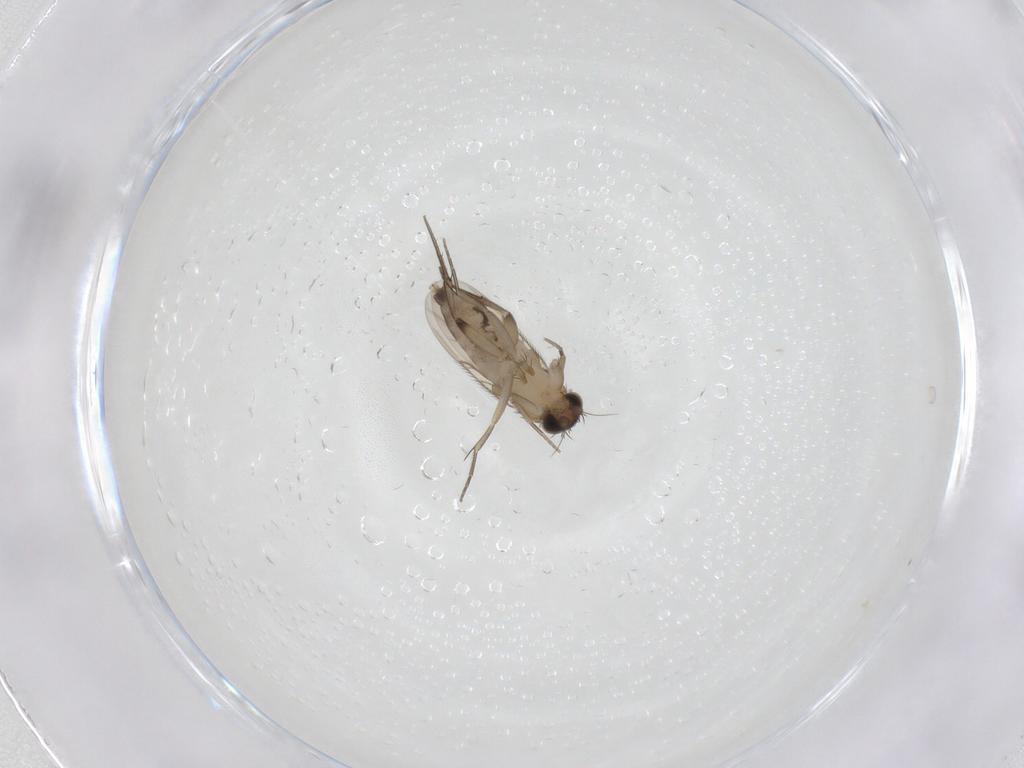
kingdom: Animalia
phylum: Arthropoda
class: Insecta
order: Diptera
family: Phoridae
